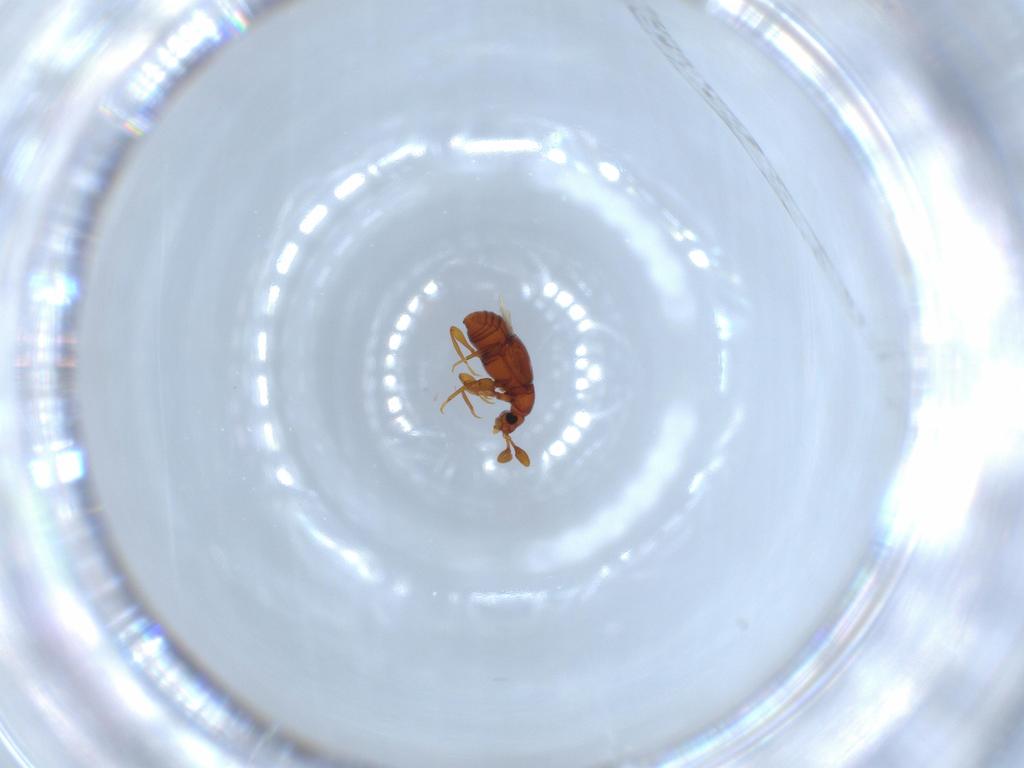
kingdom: Animalia
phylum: Arthropoda
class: Insecta
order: Coleoptera
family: Staphylinidae
